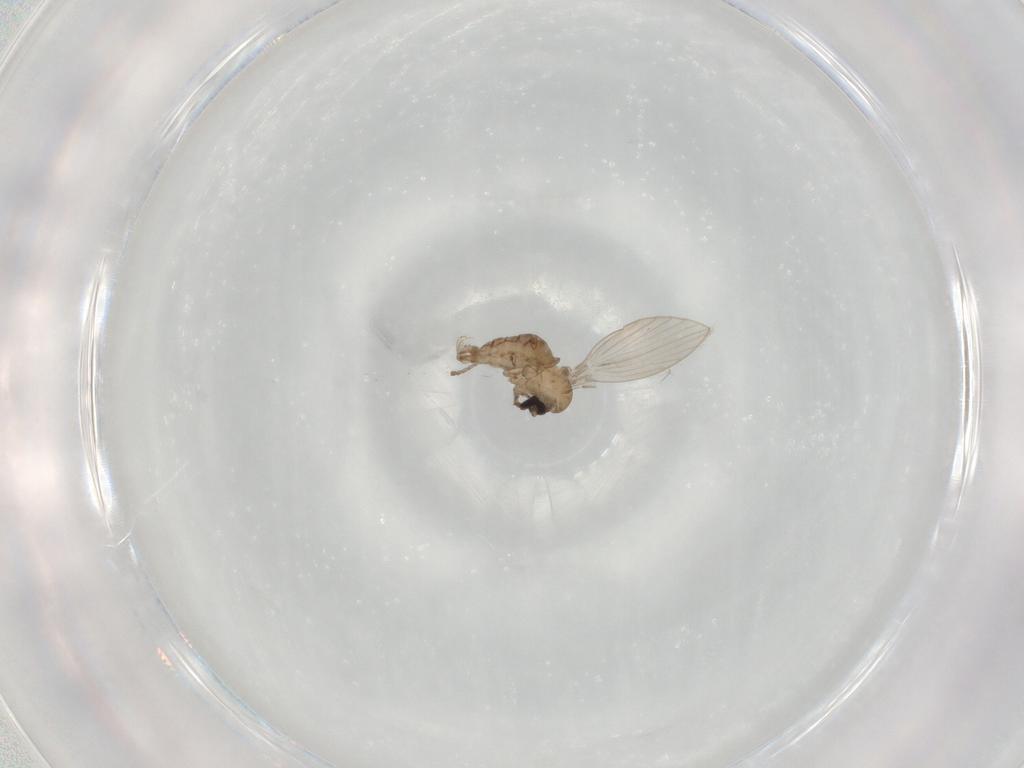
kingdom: Animalia
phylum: Arthropoda
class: Insecta
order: Diptera
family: Psychodidae
